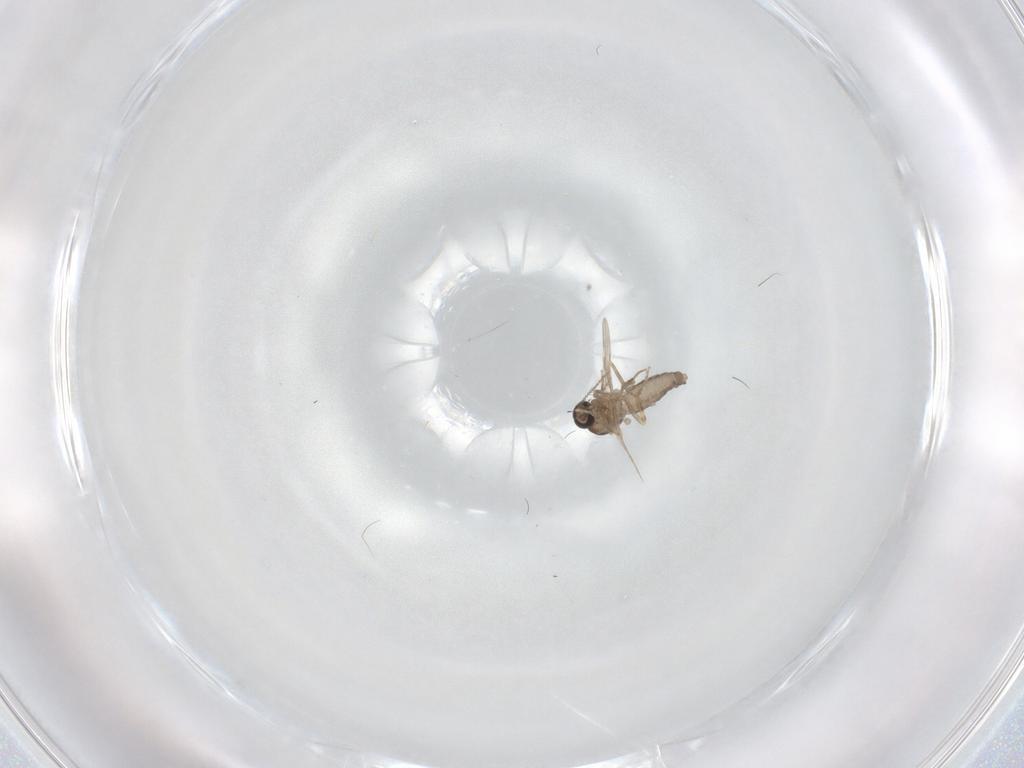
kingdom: Animalia
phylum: Arthropoda
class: Insecta
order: Diptera
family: Ceratopogonidae
